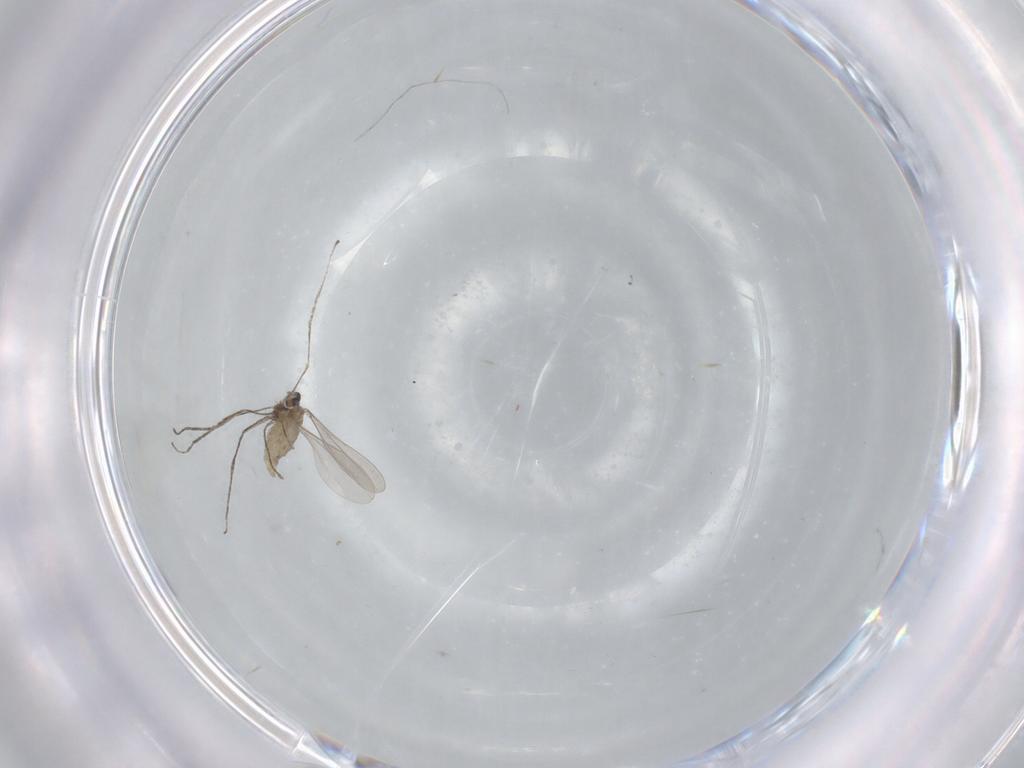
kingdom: Animalia
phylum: Arthropoda
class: Insecta
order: Diptera
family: Cecidomyiidae
